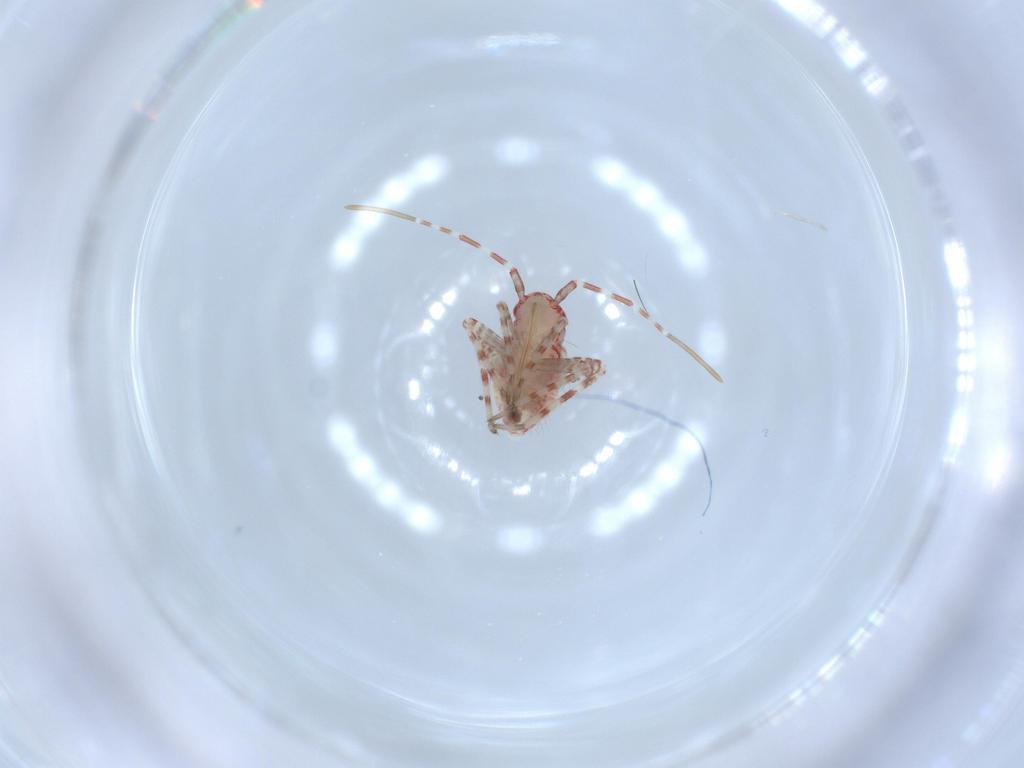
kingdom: Animalia
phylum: Arthropoda
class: Insecta
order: Hemiptera
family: Miridae
